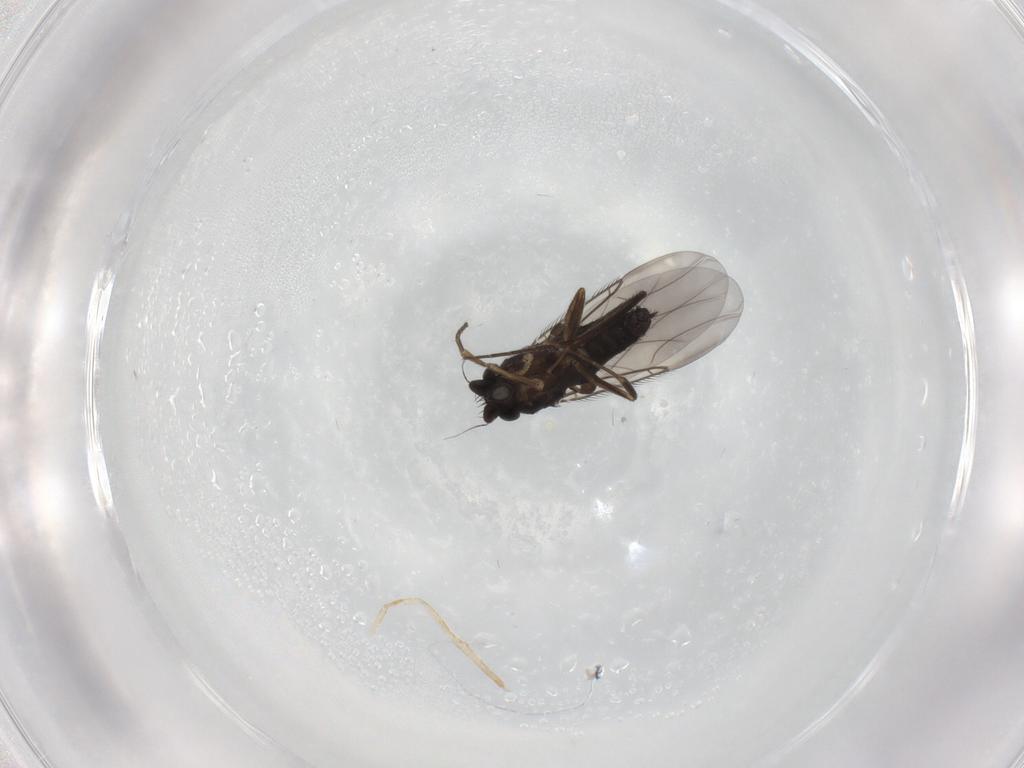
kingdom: Animalia
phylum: Arthropoda
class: Insecta
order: Diptera
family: Phoridae
